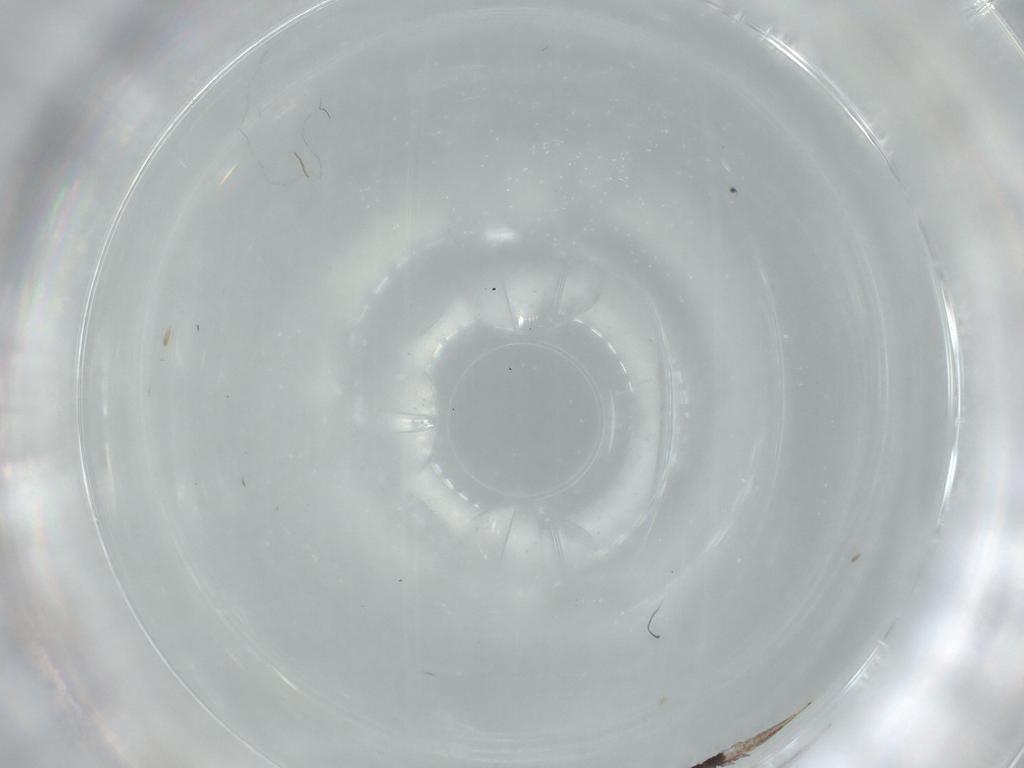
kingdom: Animalia
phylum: Arthropoda
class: Insecta
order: Thysanoptera
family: Phlaeothripidae
